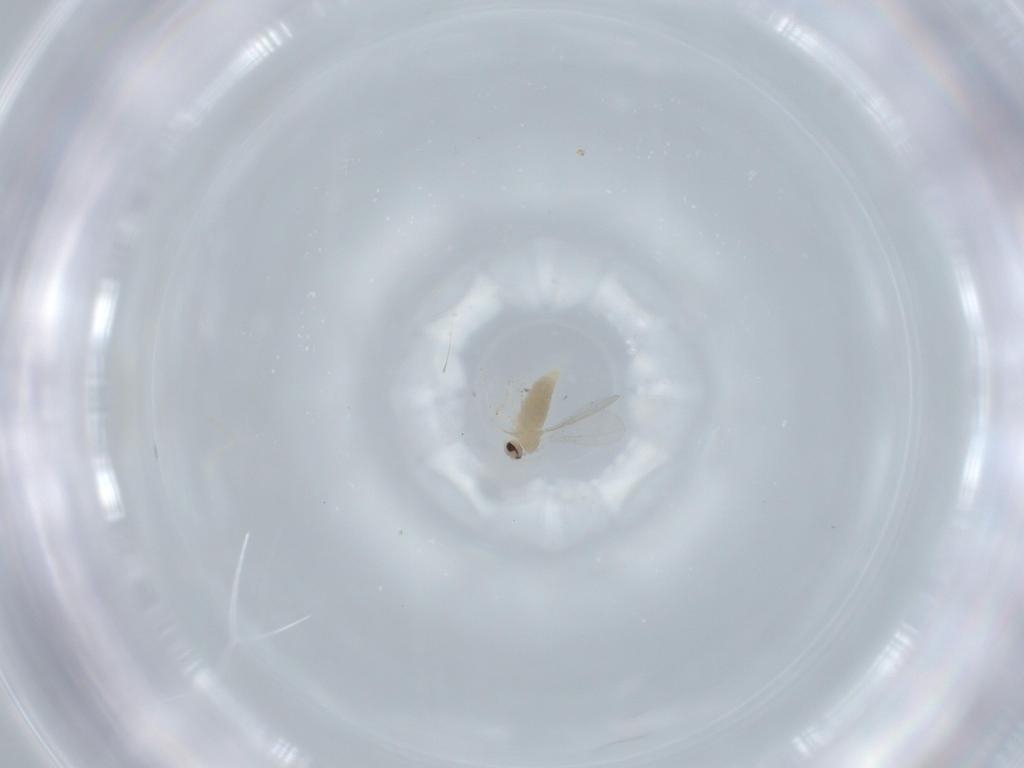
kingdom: Animalia
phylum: Arthropoda
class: Insecta
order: Diptera
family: Cecidomyiidae
